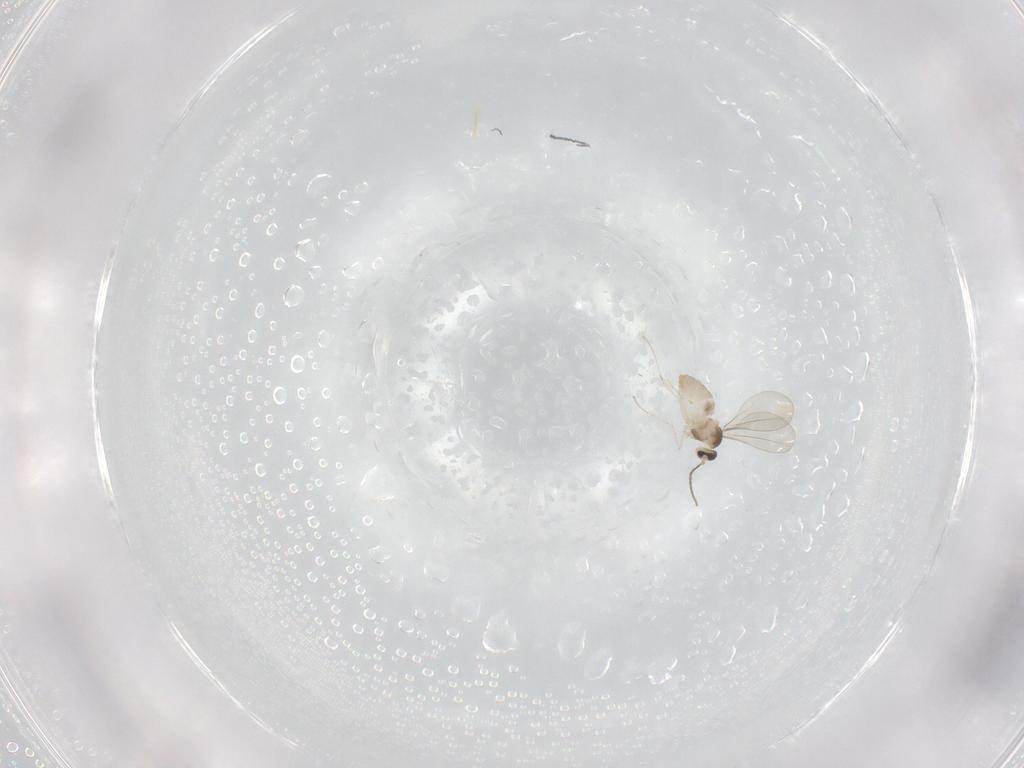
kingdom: Animalia
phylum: Arthropoda
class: Insecta
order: Diptera
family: Cecidomyiidae
